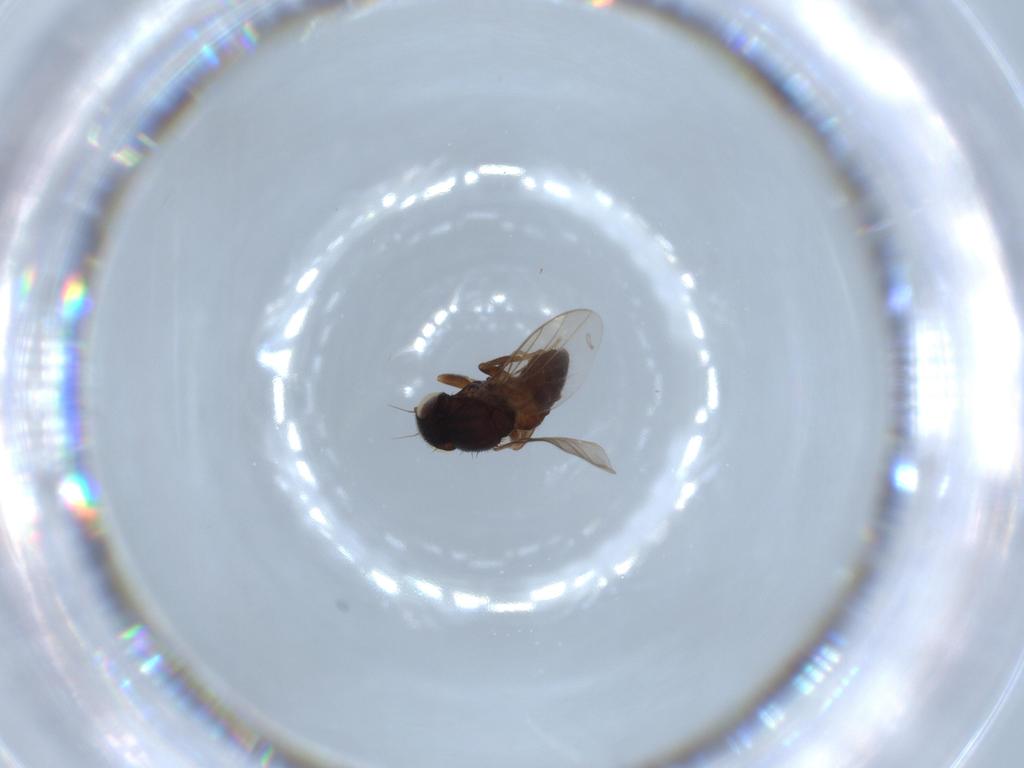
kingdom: Animalia
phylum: Arthropoda
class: Insecta
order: Diptera
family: Chloropidae
